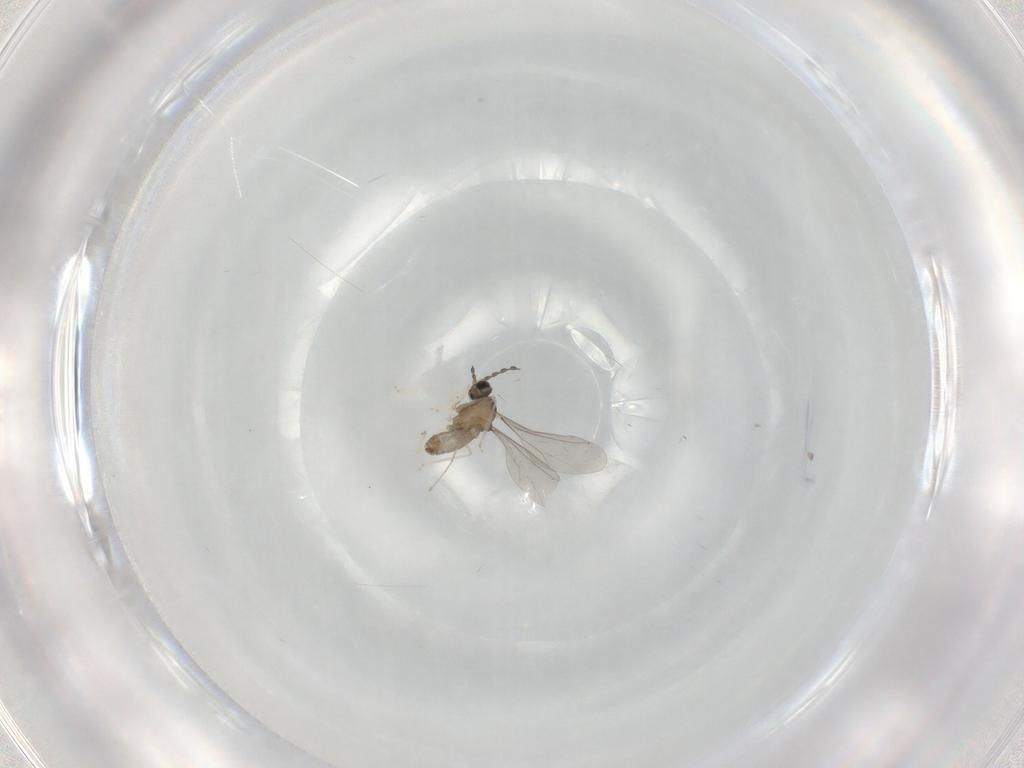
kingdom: Animalia
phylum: Arthropoda
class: Insecta
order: Diptera
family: Cecidomyiidae
